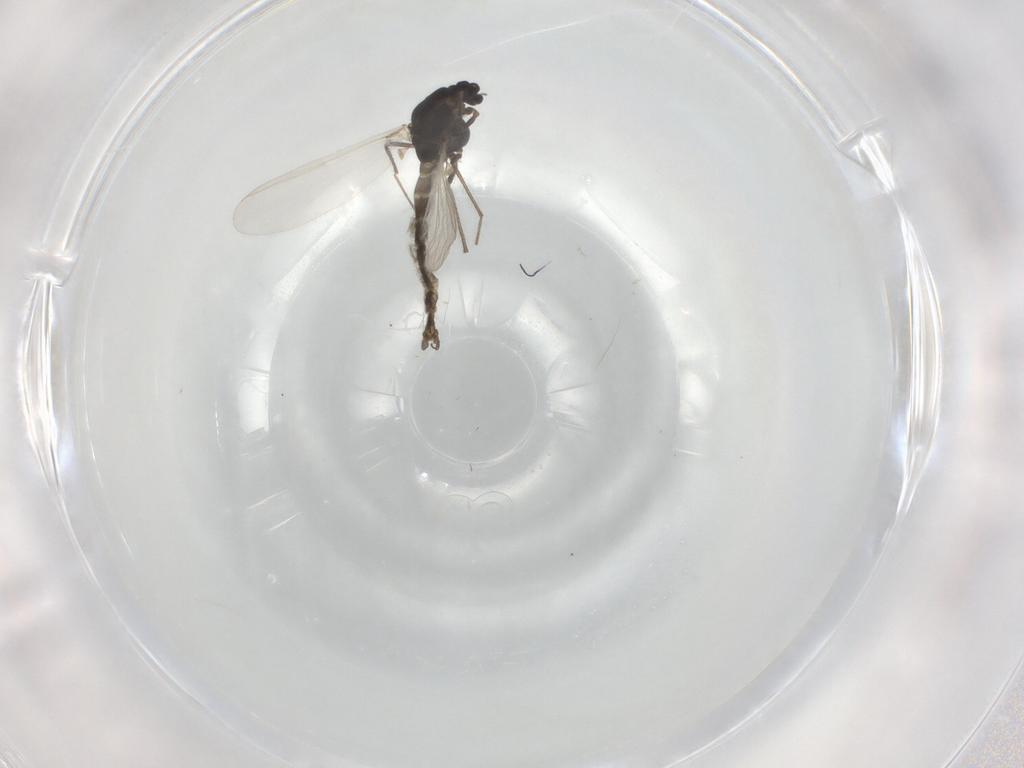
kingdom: Animalia
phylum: Arthropoda
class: Insecta
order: Diptera
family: Chironomidae
